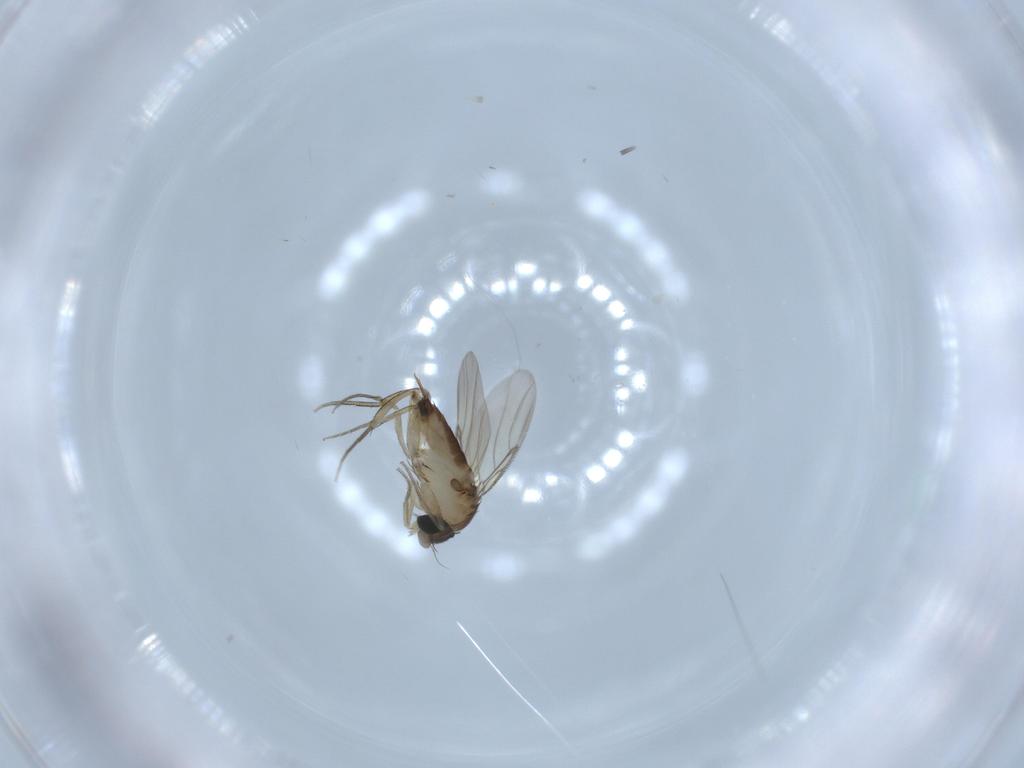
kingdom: Animalia
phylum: Arthropoda
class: Insecta
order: Diptera
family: Phoridae
